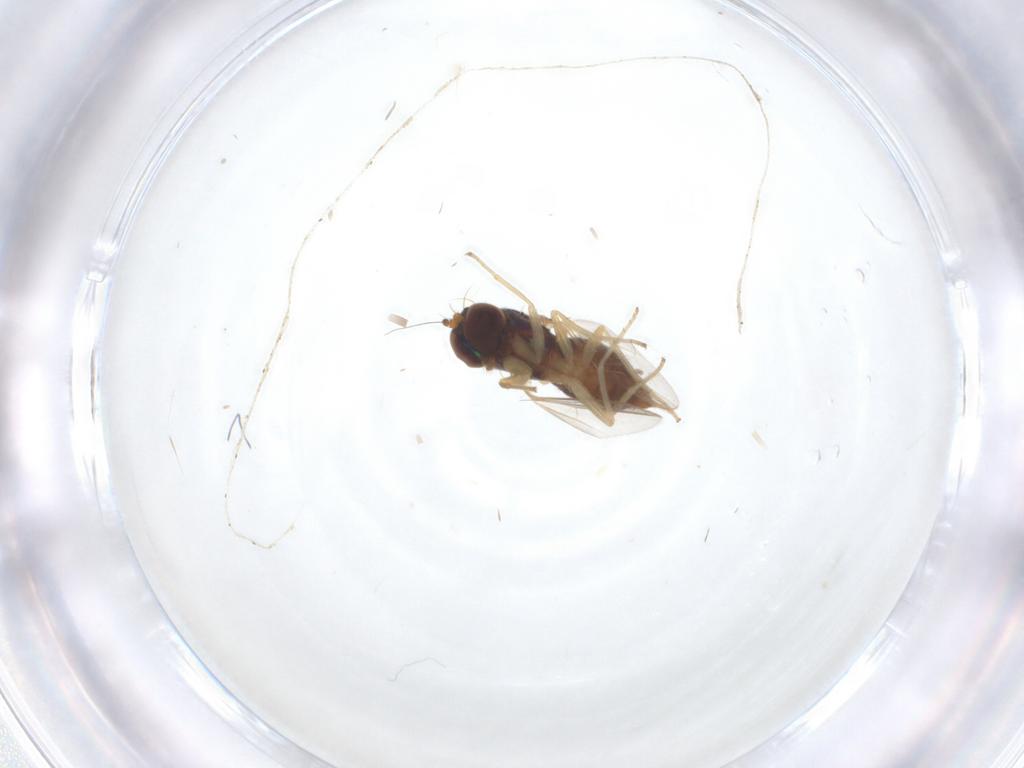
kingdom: Animalia
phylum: Arthropoda
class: Insecta
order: Diptera
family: Dolichopodidae
